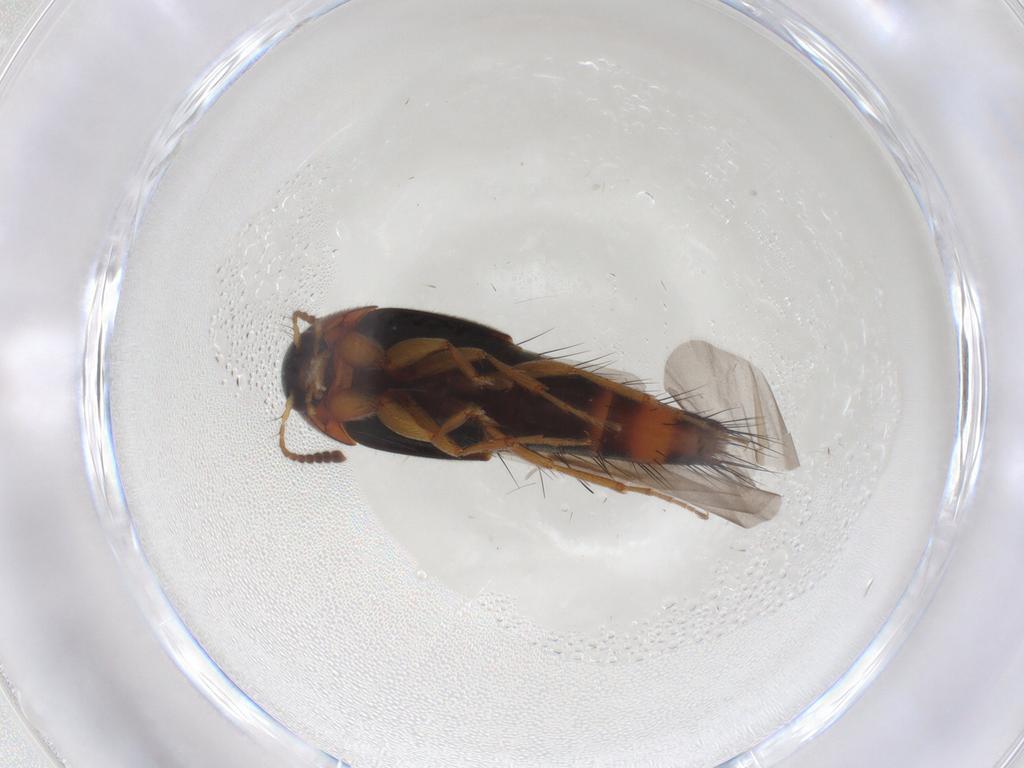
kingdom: Animalia
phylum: Arthropoda
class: Insecta
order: Coleoptera
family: Staphylinidae
